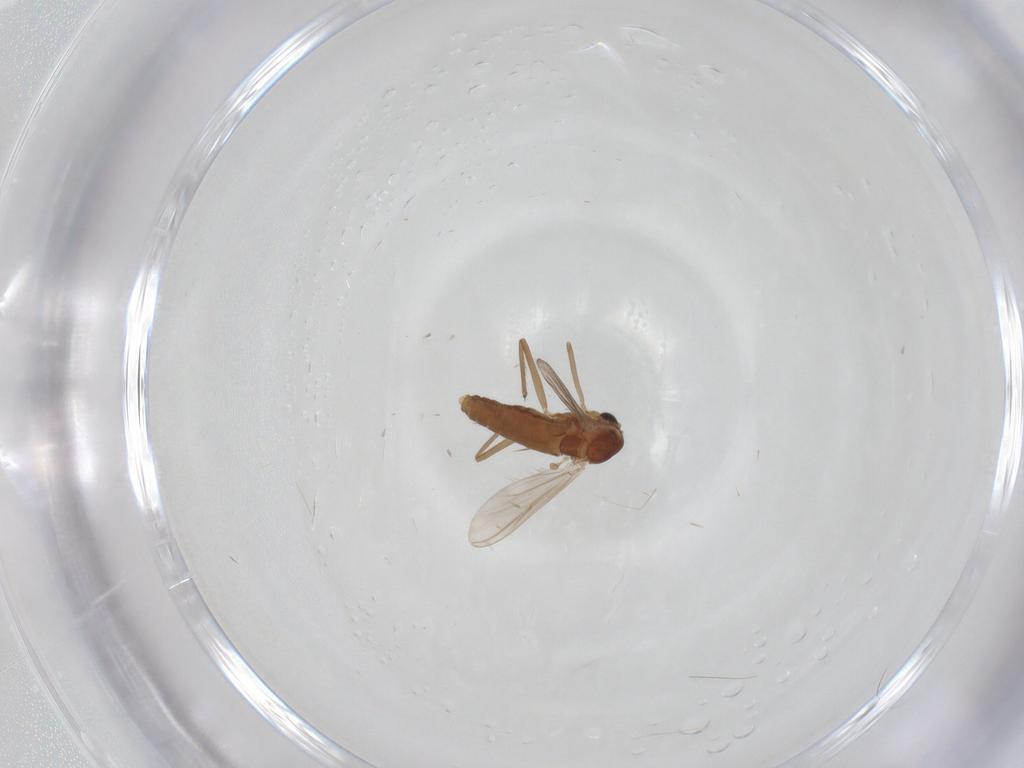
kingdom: Animalia
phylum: Arthropoda
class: Insecta
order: Diptera
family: Chironomidae
